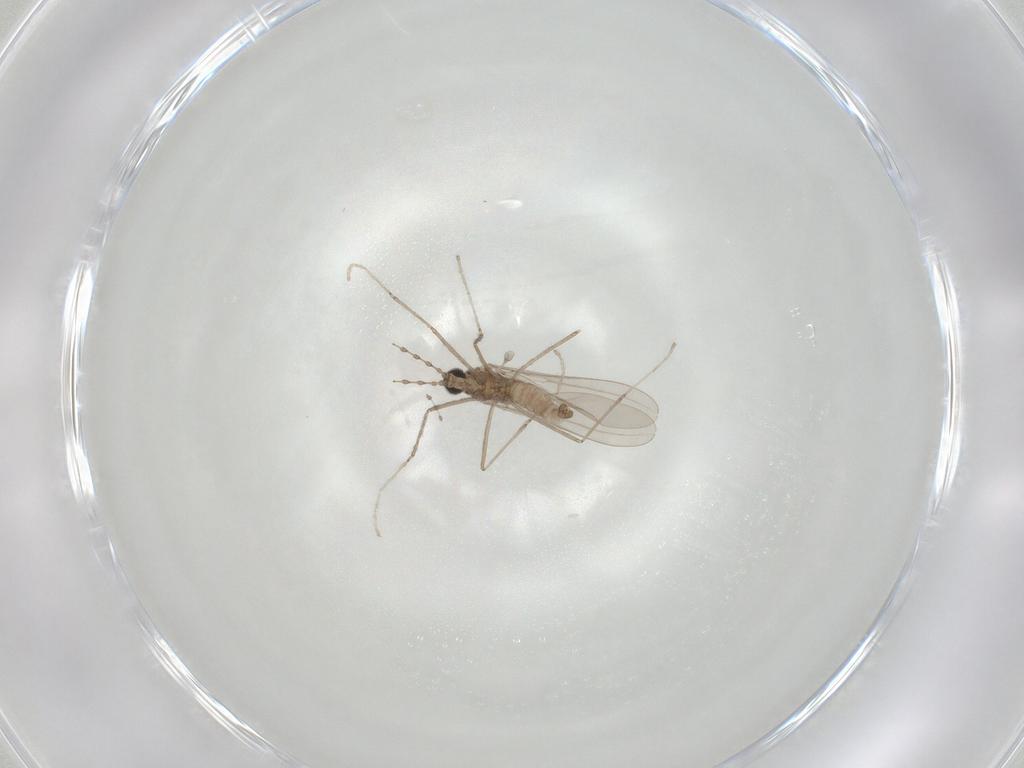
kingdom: Animalia
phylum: Arthropoda
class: Insecta
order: Diptera
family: Cecidomyiidae
